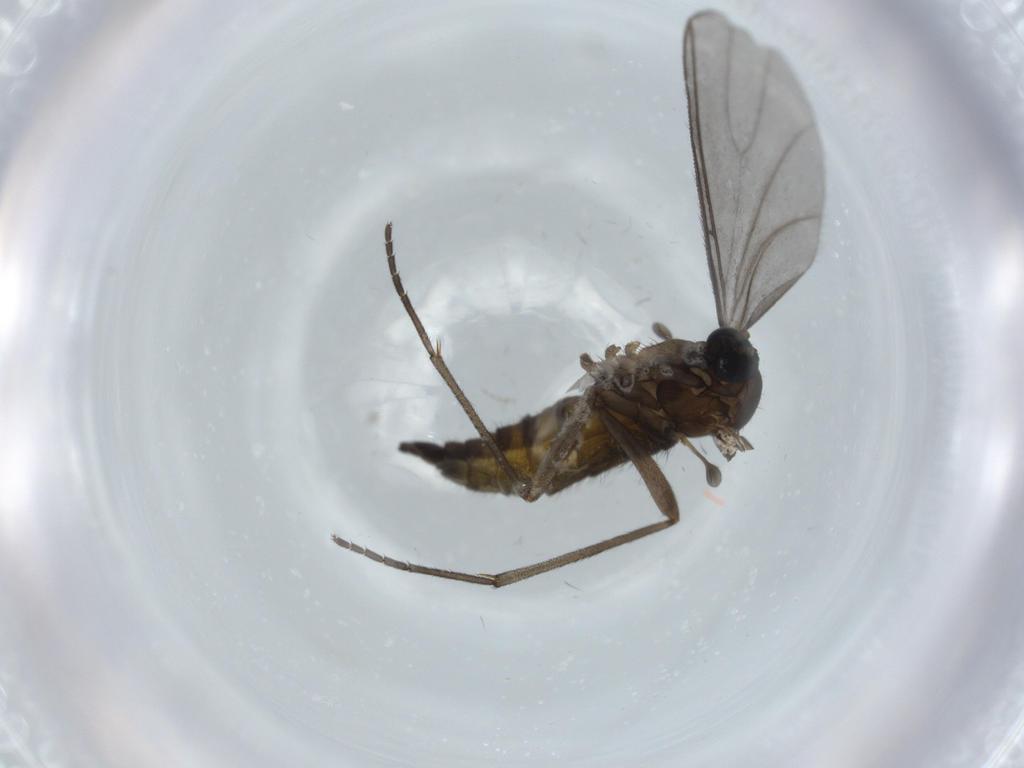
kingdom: Animalia
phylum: Arthropoda
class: Insecta
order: Diptera
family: Sciaridae
